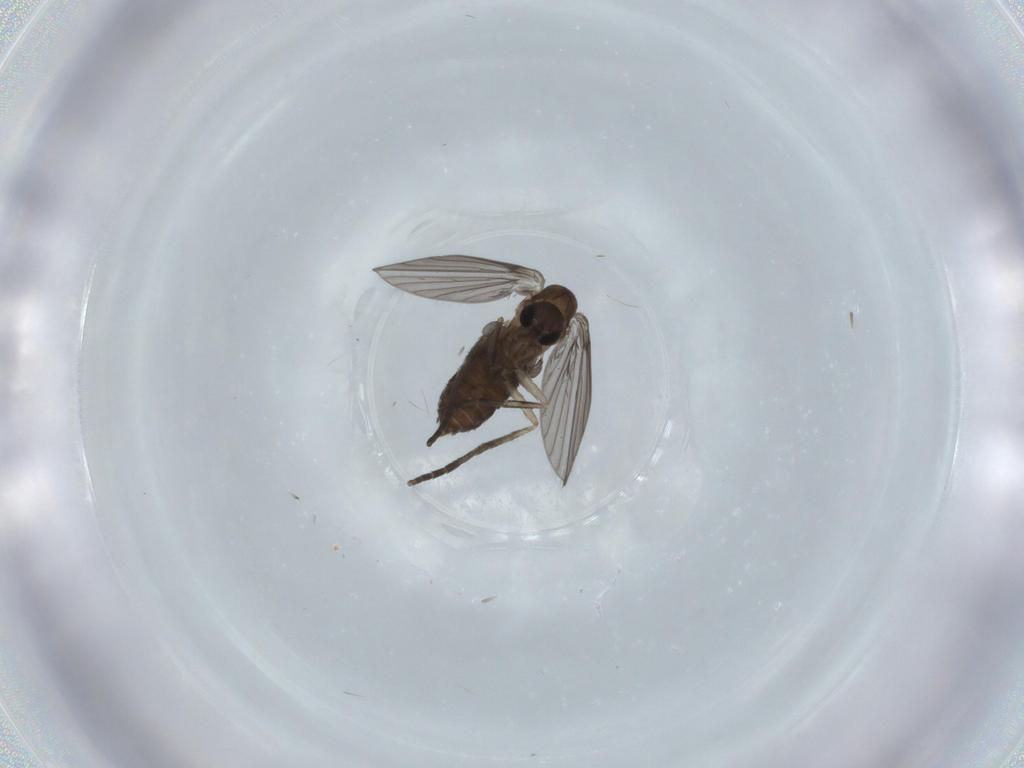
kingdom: Animalia
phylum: Arthropoda
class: Insecta
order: Diptera
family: Psychodidae
